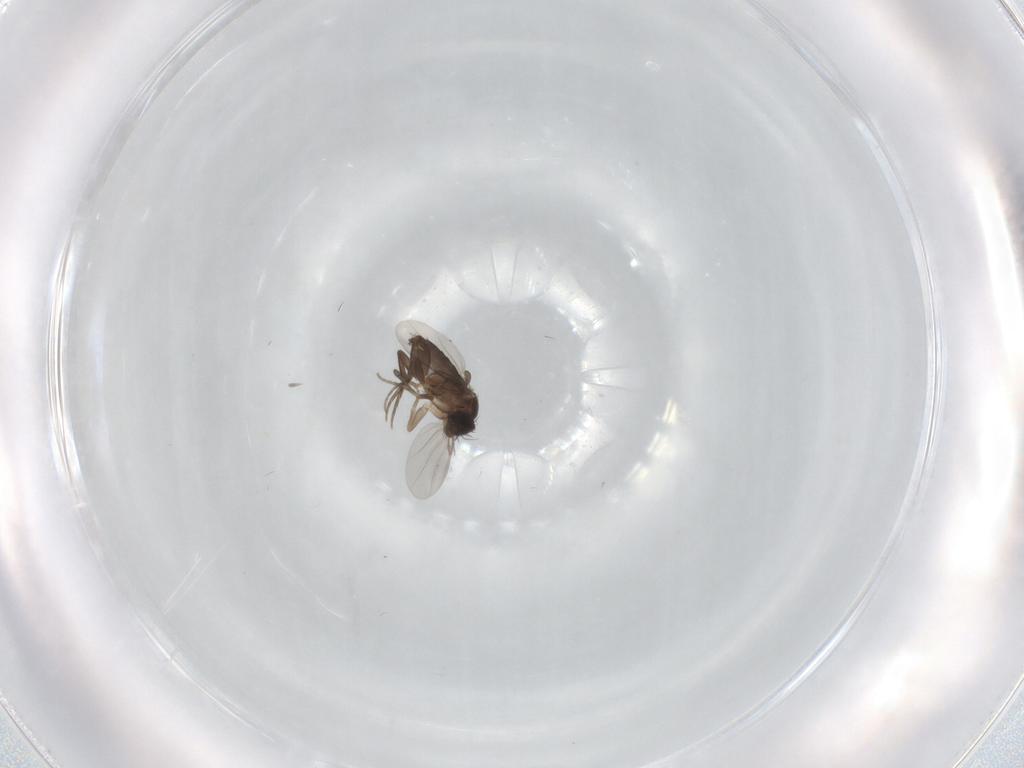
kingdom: Animalia
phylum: Arthropoda
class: Insecta
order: Diptera
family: Phoridae
